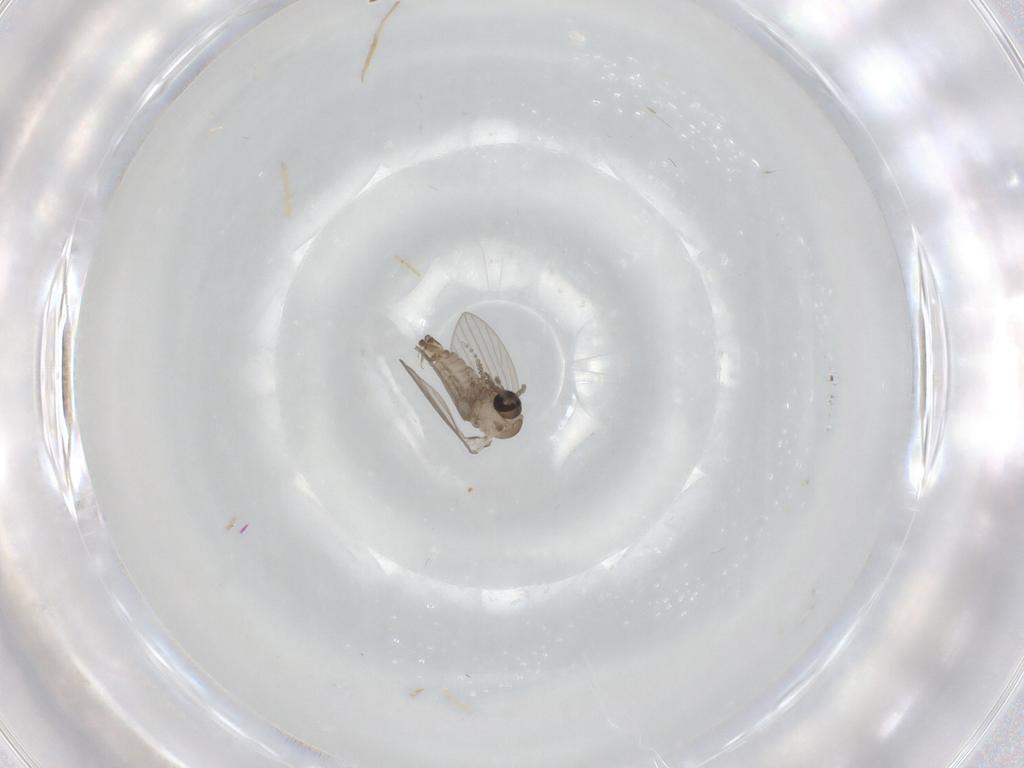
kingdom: Animalia
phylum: Arthropoda
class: Insecta
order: Diptera
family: Psychodidae
